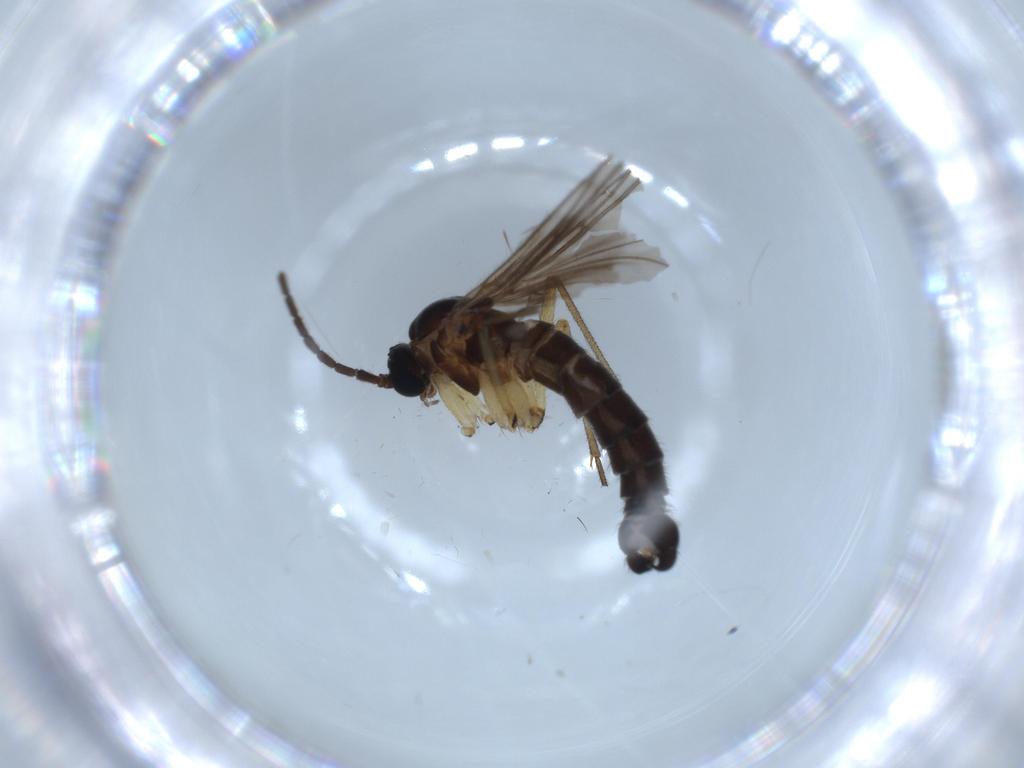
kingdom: Animalia
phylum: Arthropoda
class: Insecta
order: Diptera
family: Sciaridae
